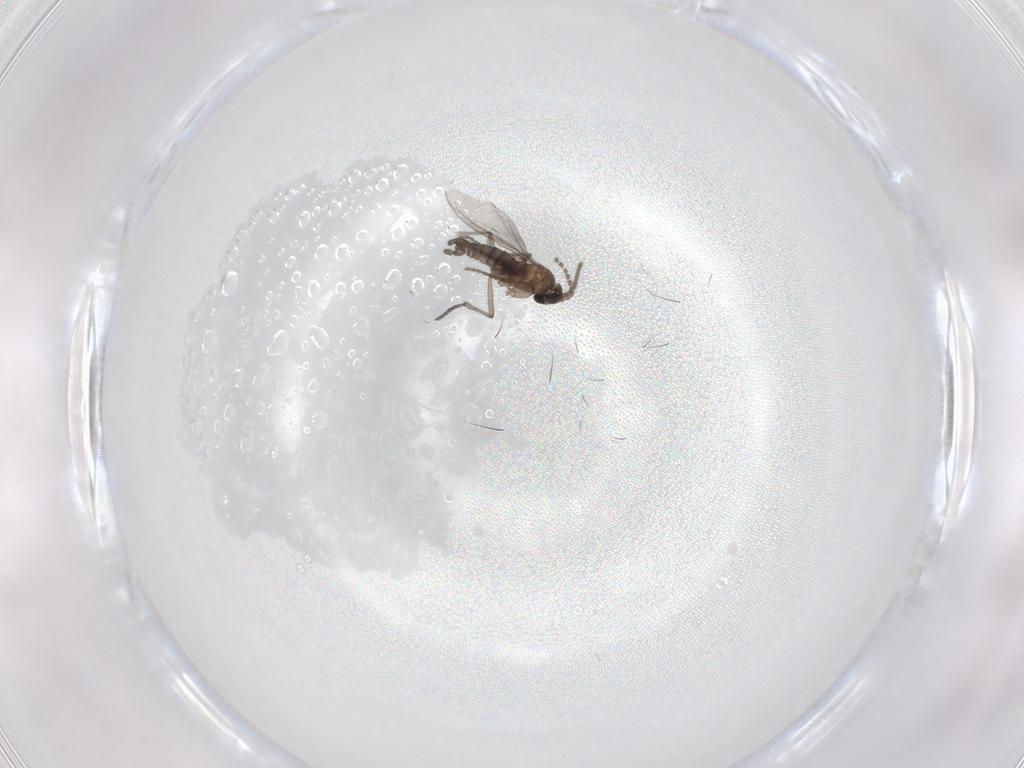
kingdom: Animalia
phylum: Arthropoda
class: Insecta
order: Diptera
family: Sciaridae
